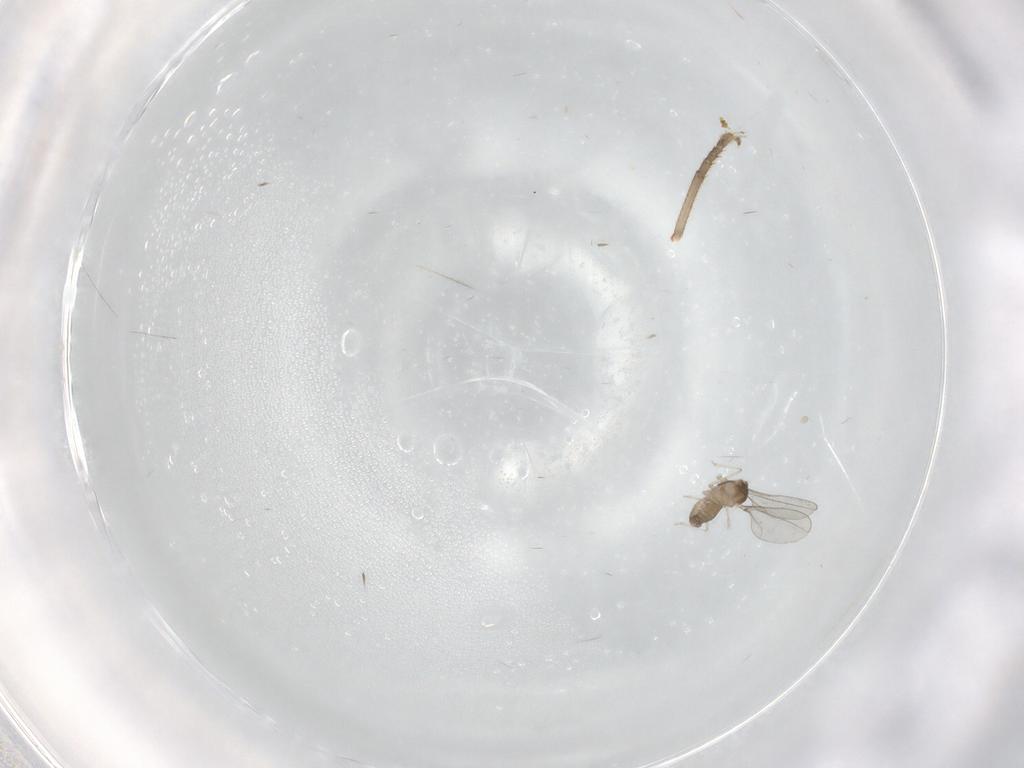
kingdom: Animalia
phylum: Arthropoda
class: Insecta
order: Diptera
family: Cecidomyiidae
